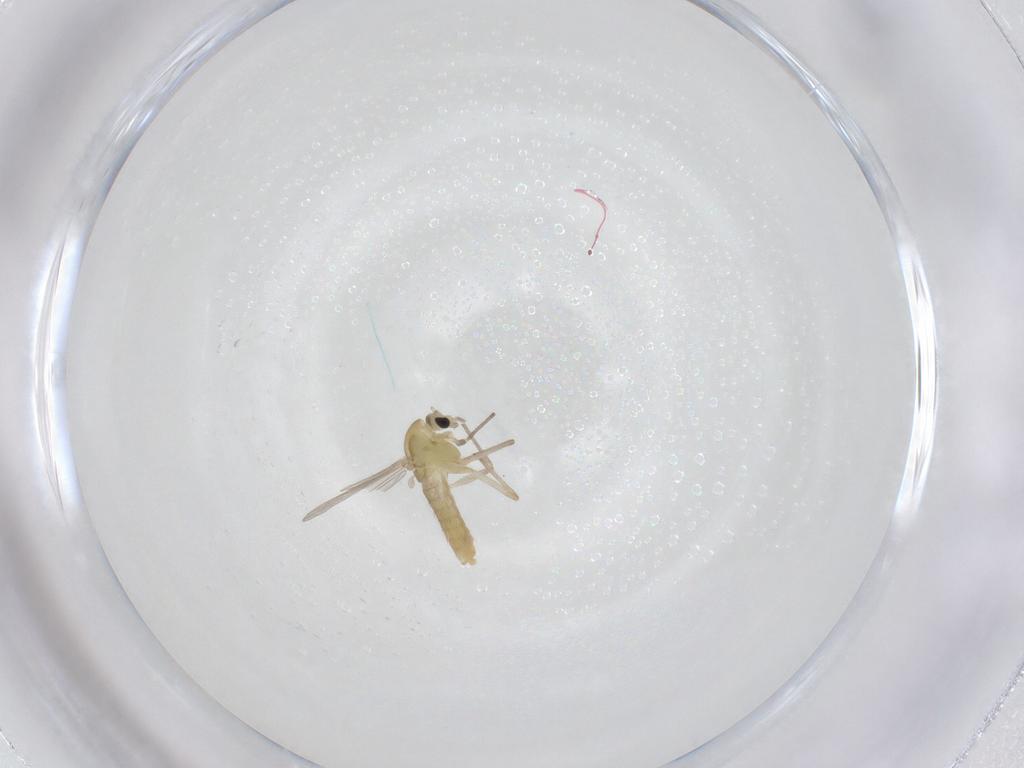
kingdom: Animalia
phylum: Arthropoda
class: Insecta
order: Diptera
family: Chironomidae
